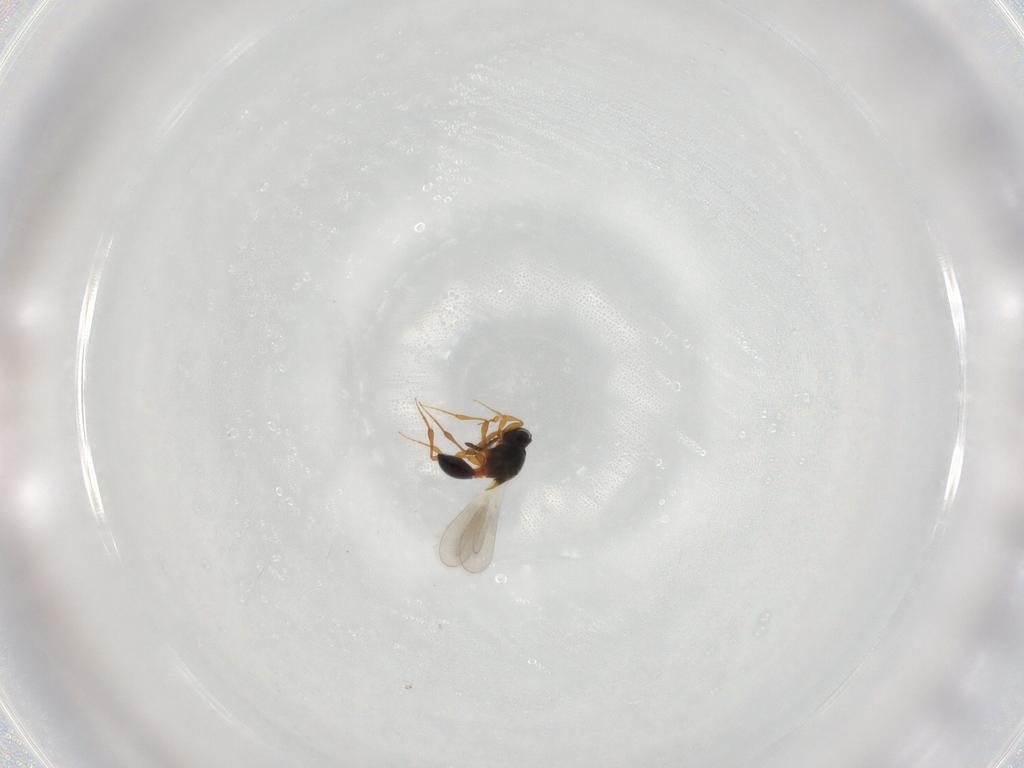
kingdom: Animalia
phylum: Arthropoda
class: Insecta
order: Hymenoptera
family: Platygastridae
